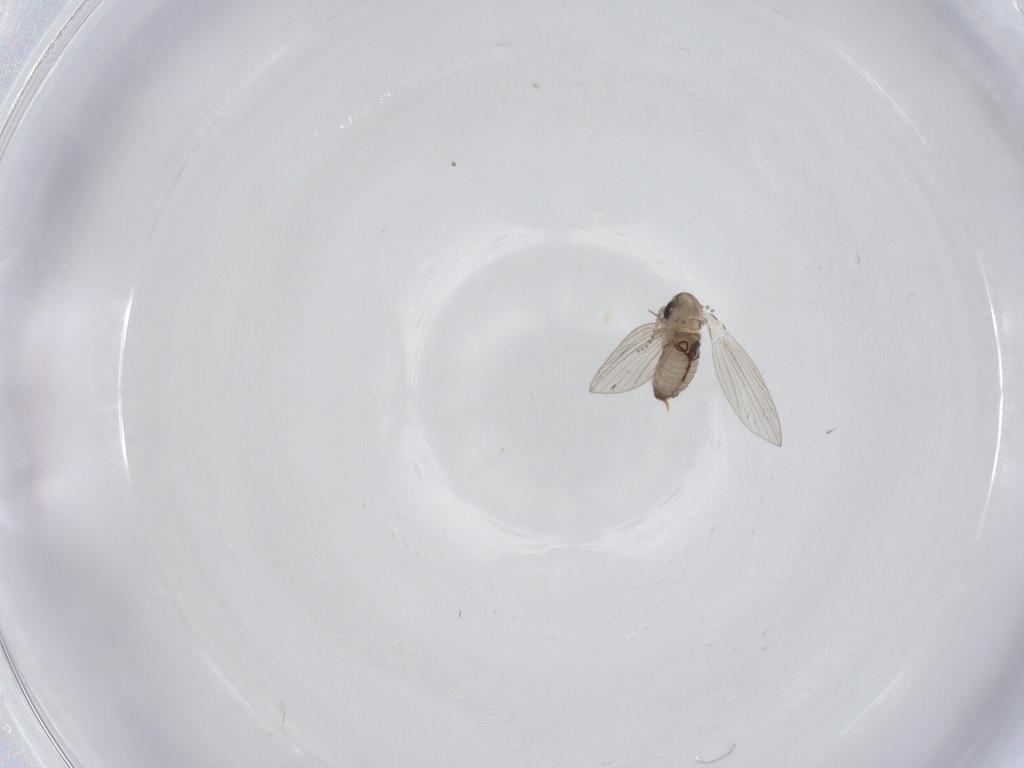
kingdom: Animalia
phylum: Arthropoda
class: Insecta
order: Diptera
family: Psychodidae
